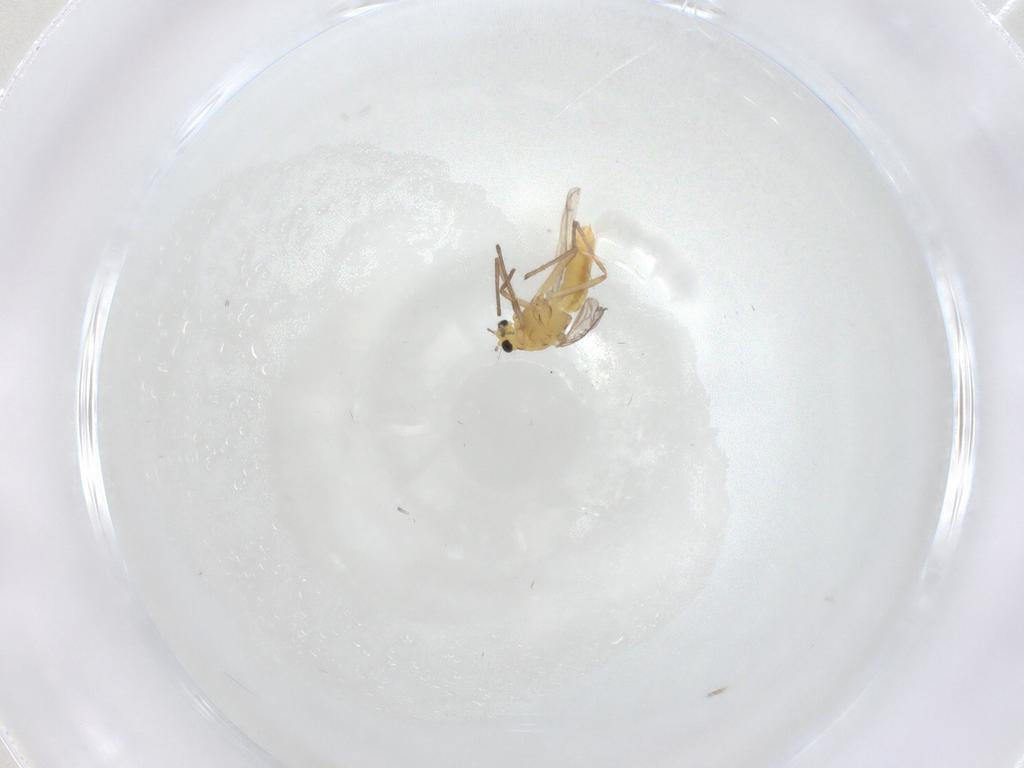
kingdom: Animalia
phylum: Arthropoda
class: Insecta
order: Diptera
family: Chironomidae
